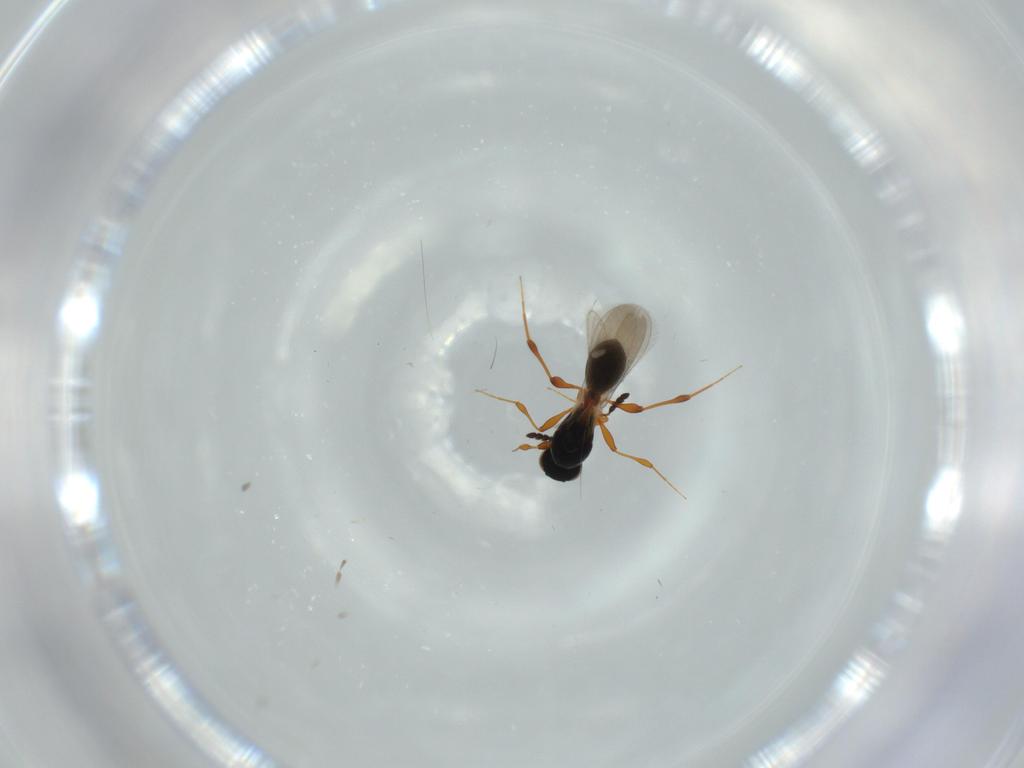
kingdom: Animalia
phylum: Arthropoda
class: Insecta
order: Hymenoptera
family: Platygastridae
